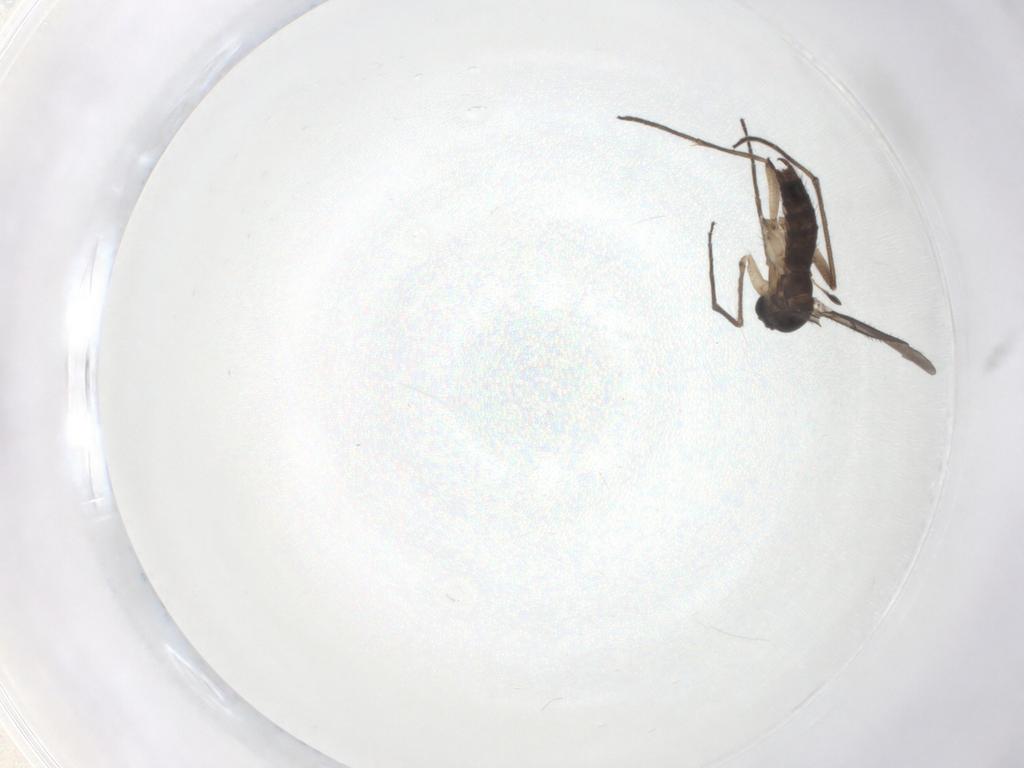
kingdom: Animalia
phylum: Arthropoda
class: Insecta
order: Diptera
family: Sciaridae
